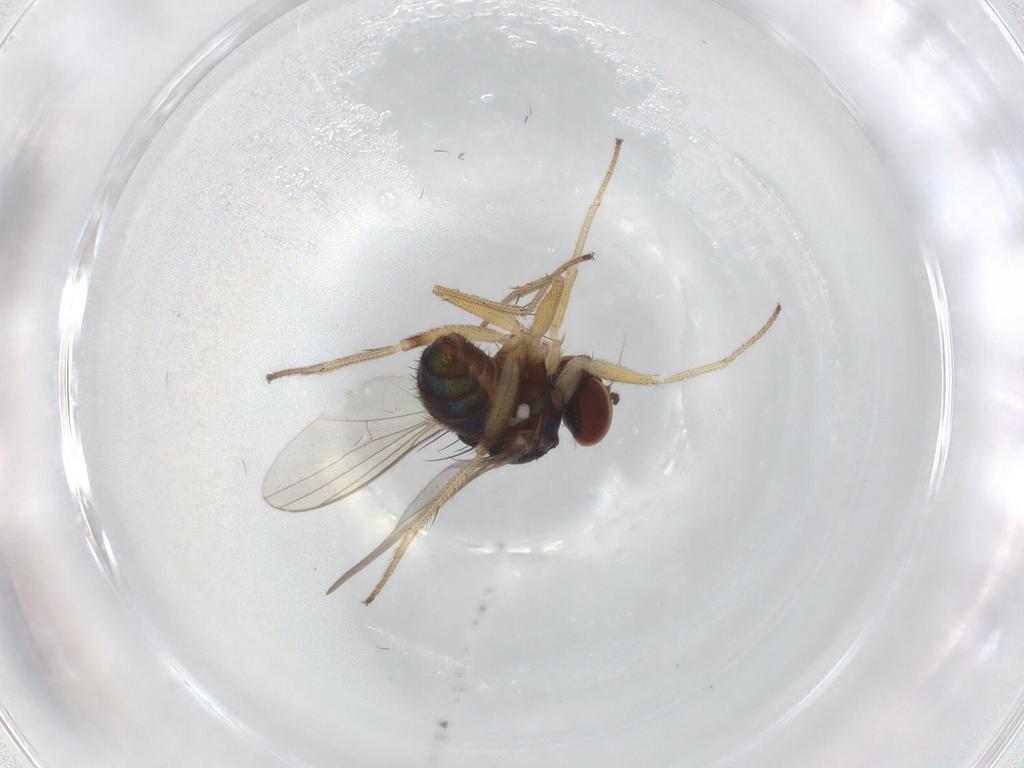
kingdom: Animalia
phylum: Arthropoda
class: Insecta
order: Diptera
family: Dolichopodidae
